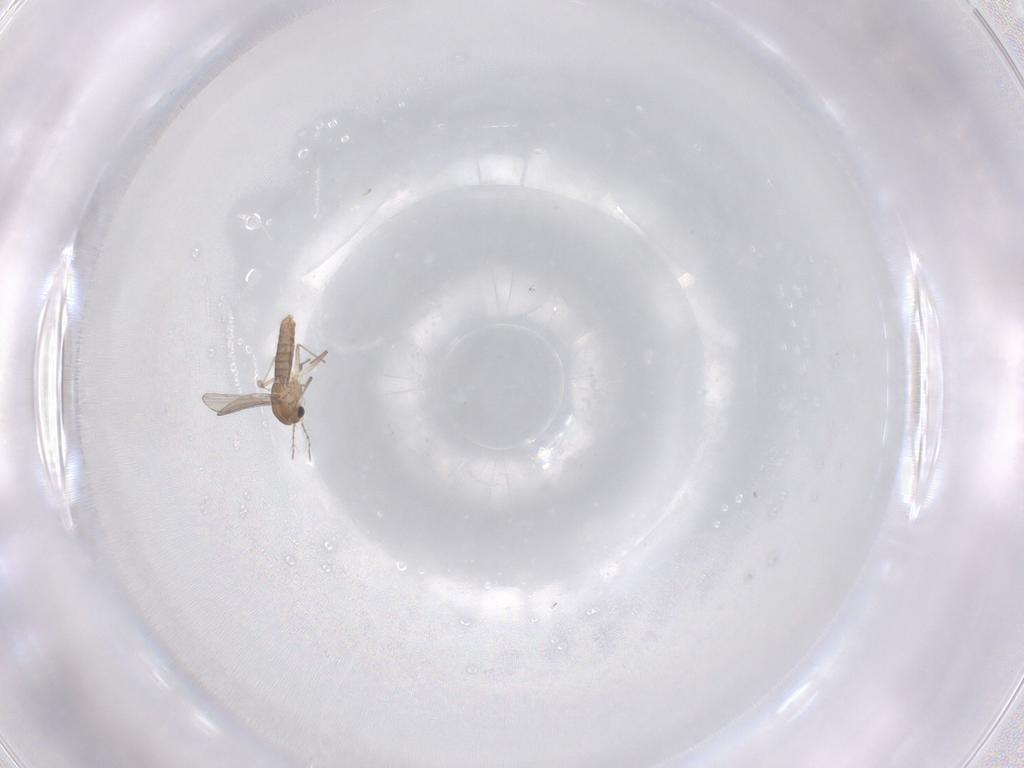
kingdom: Animalia
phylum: Arthropoda
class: Insecta
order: Diptera
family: Chironomidae
